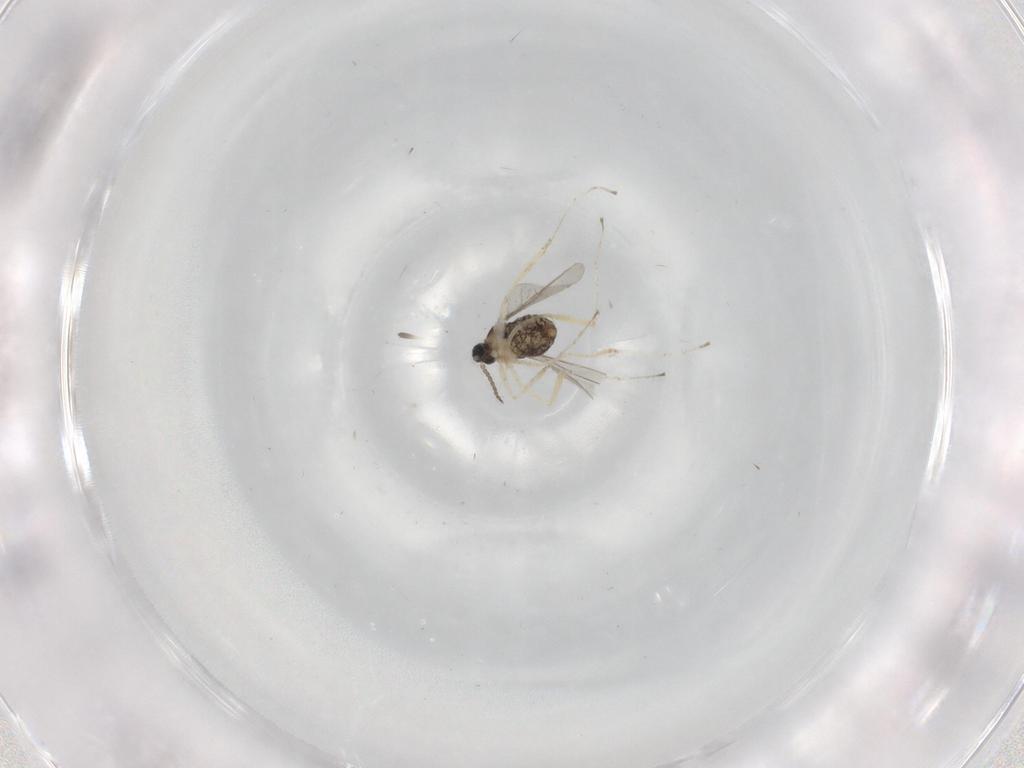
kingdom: Animalia
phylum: Arthropoda
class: Insecta
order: Diptera
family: Cecidomyiidae
